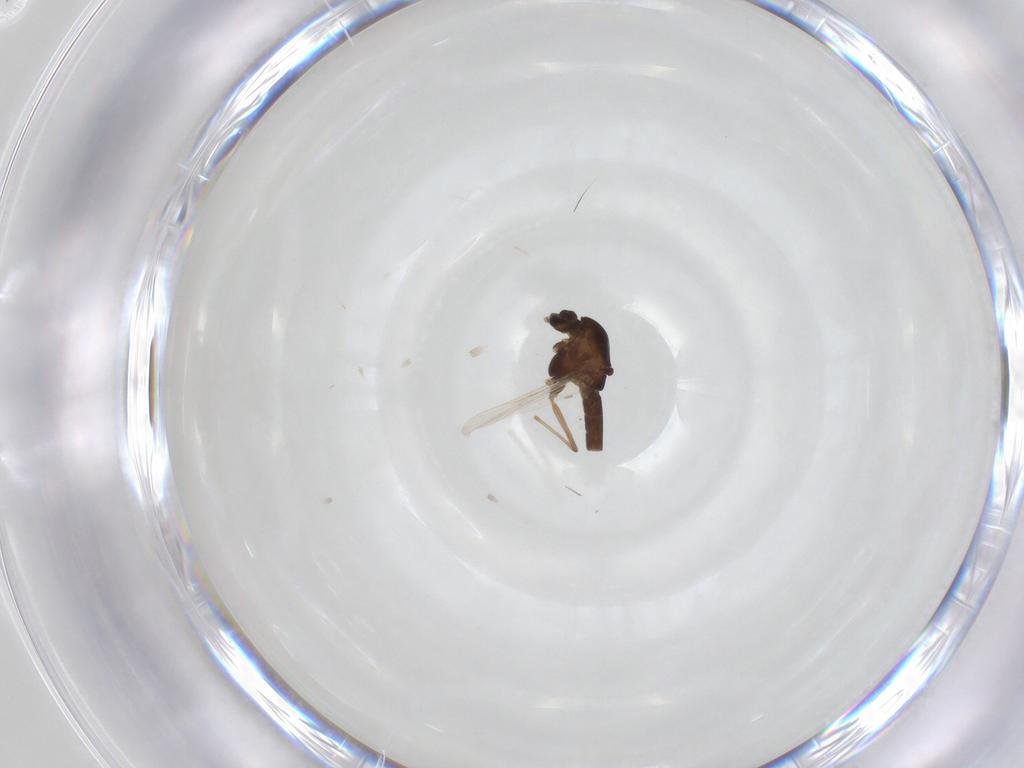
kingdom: Animalia
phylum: Arthropoda
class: Insecta
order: Diptera
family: Chironomidae
